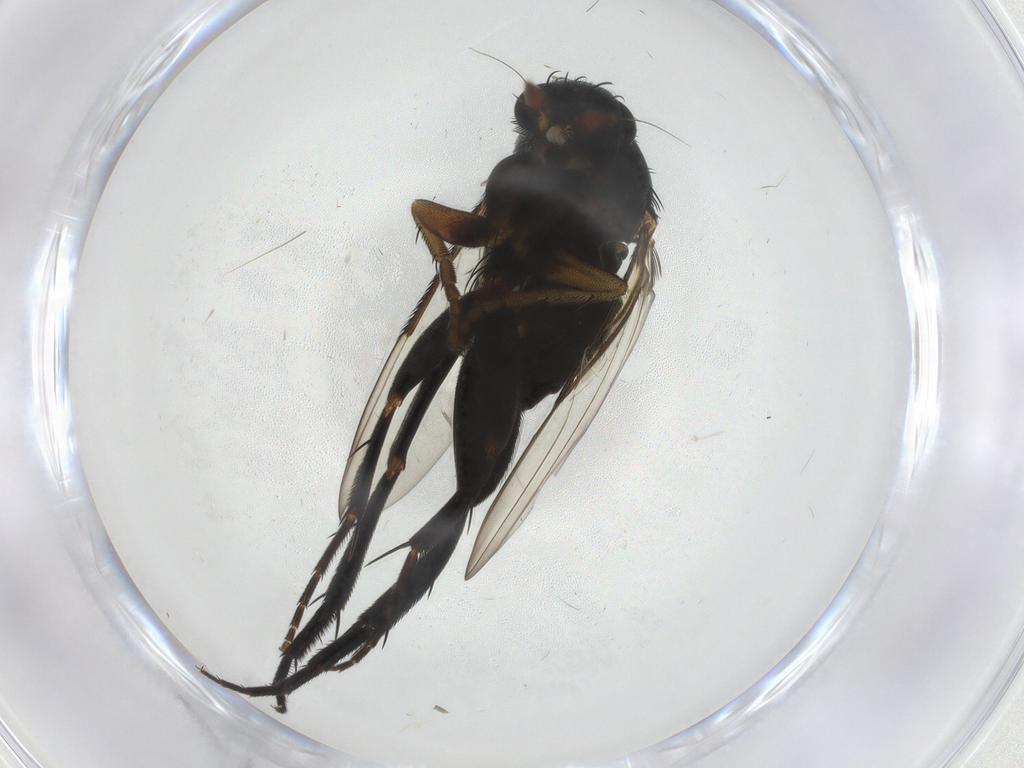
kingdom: Animalia
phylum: Arthropoda
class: Insecta
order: Diptera
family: Phoridae
